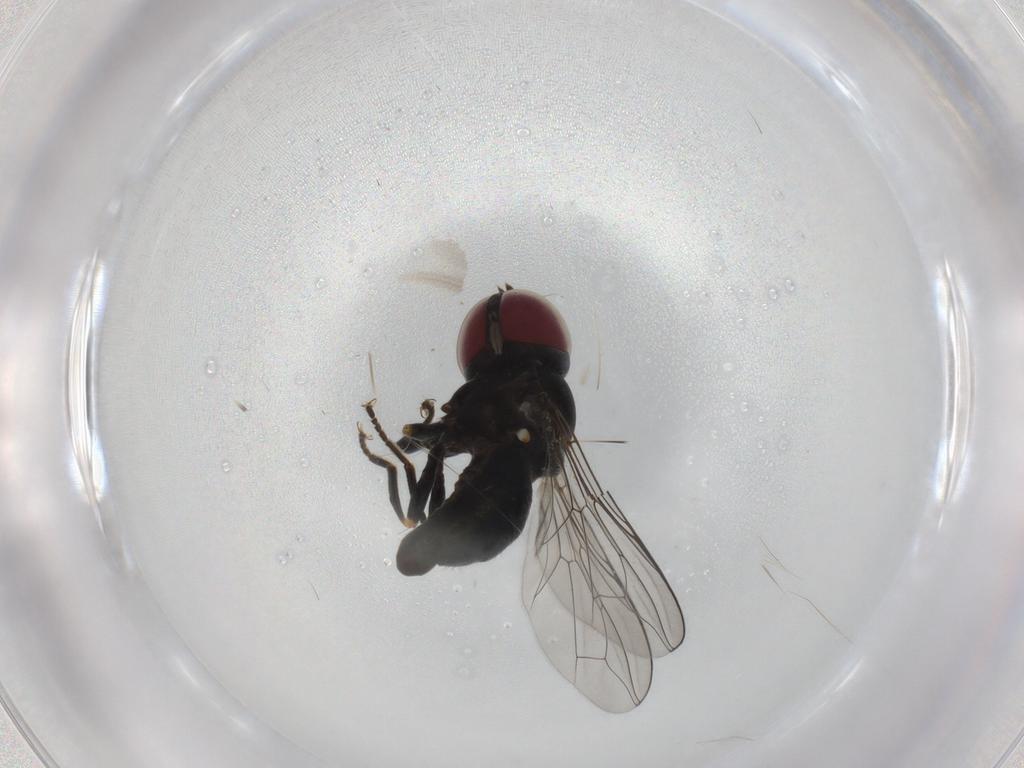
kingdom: Animalia
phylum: Arthropoda
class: Insecta
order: Diptera
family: Pipunculidae
